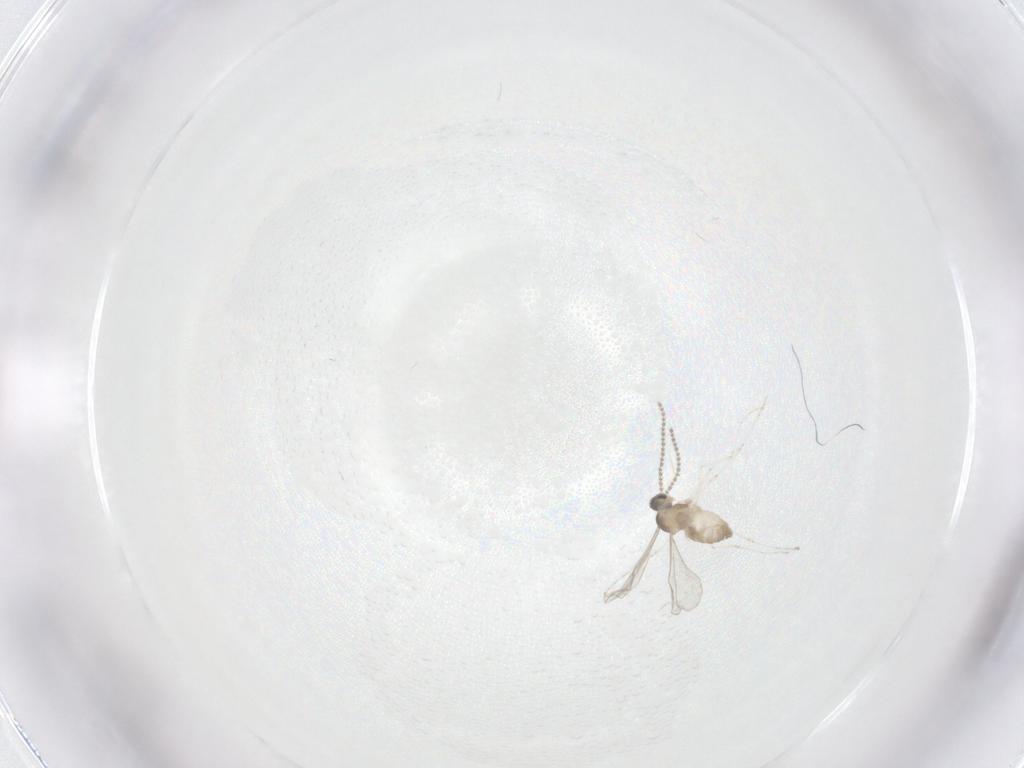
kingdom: Animalia
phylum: Arthropoda
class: Insecta
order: Diptera
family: Cecidomyiidae
